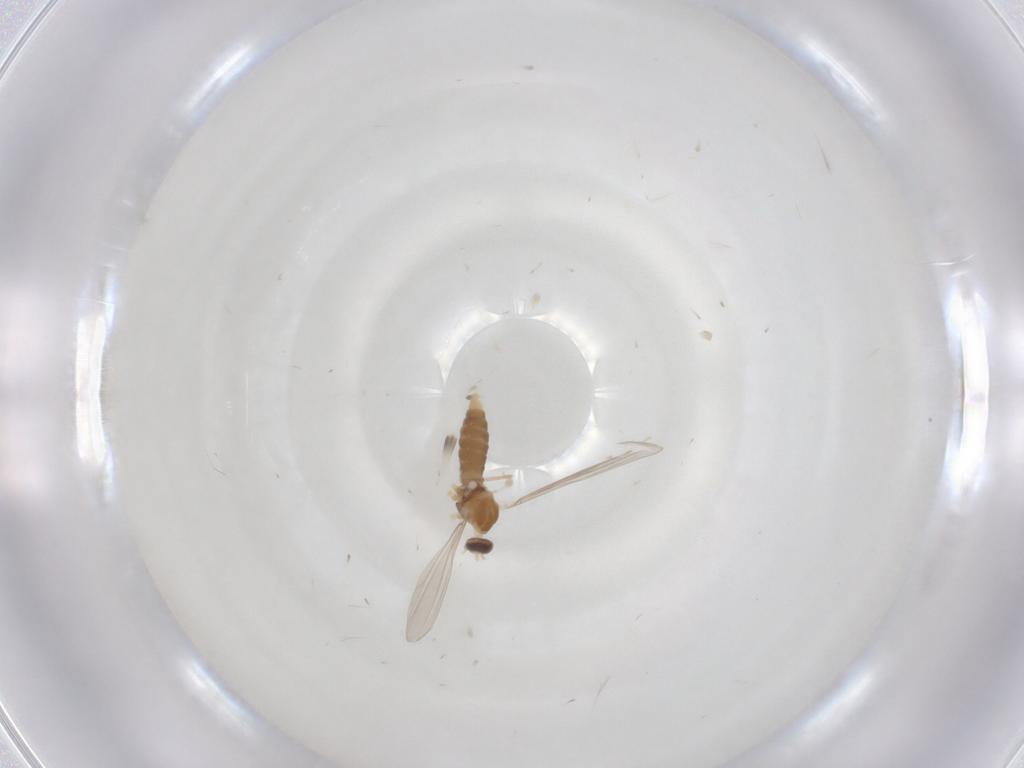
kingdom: Animalia
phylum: Arthropoda
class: Insecta
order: Diptera
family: Cecidomyiidae
